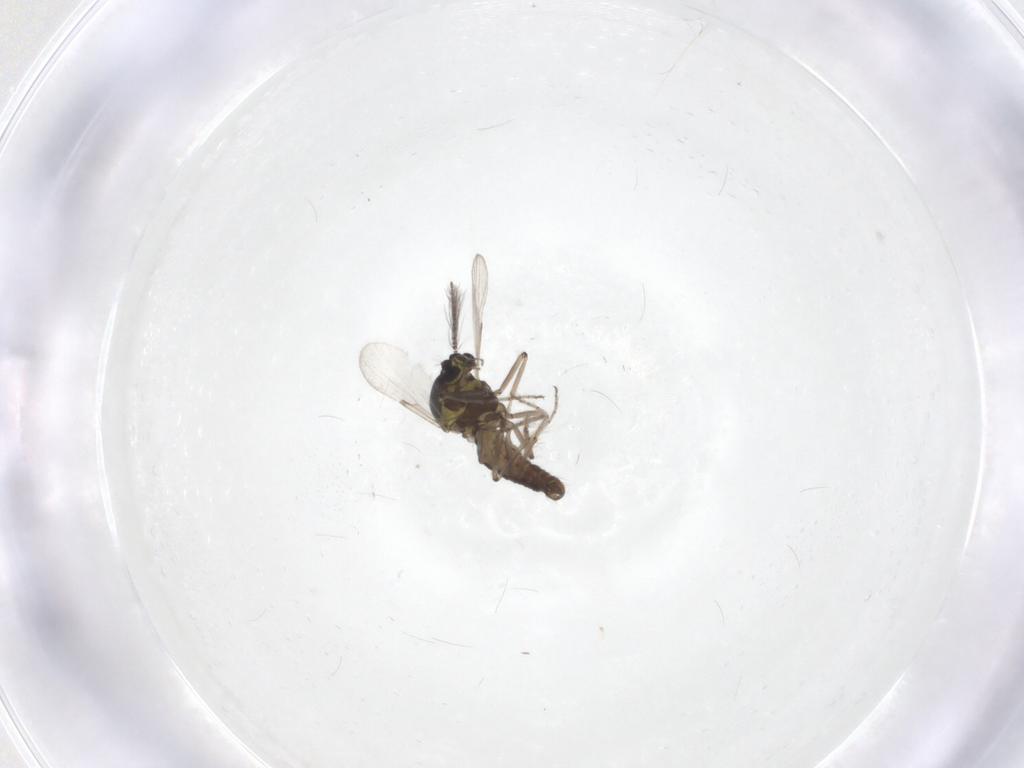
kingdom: Animalia
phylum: Arthropoda
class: Insecta
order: Diptera
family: Ceratopogonidae
